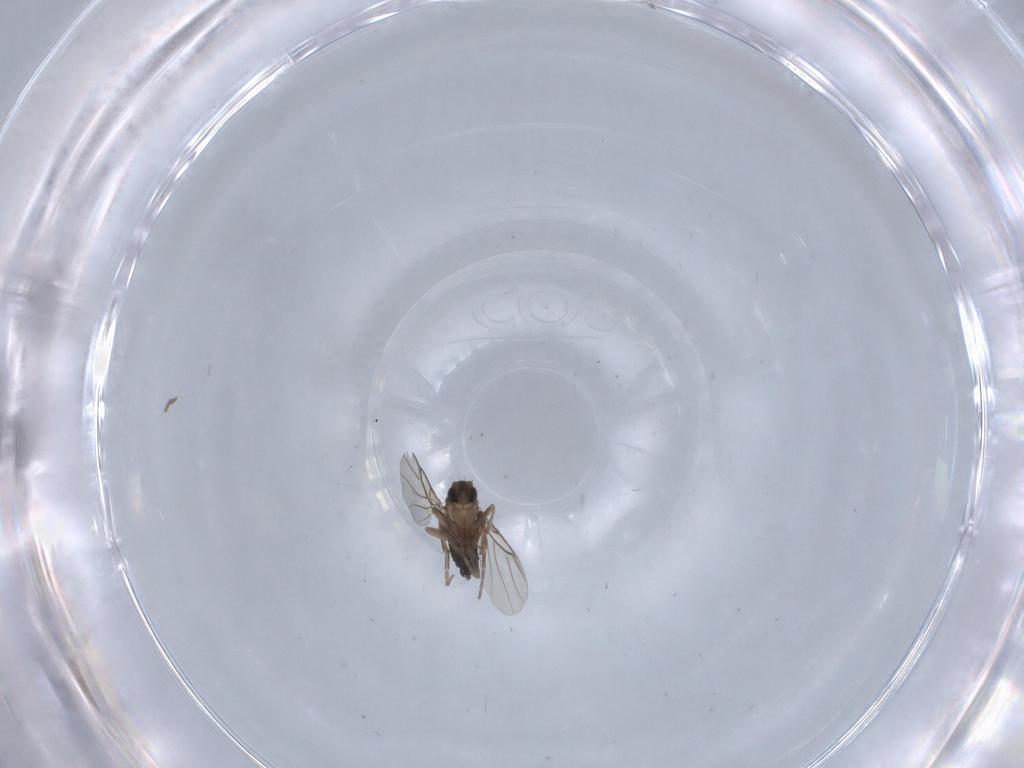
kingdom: Animalia
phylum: Arthropoda
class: Insecta
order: Diptera
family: Phoridae
